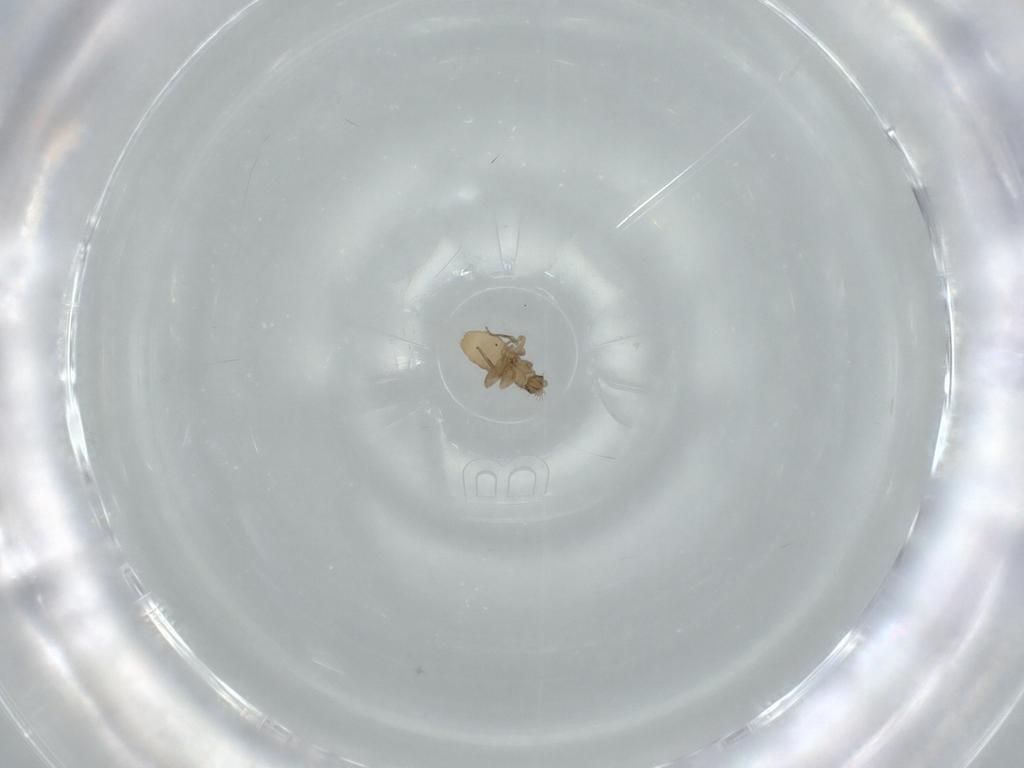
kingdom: Animalia
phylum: Arthropoda
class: Insecta
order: Diptera
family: Phoridae
